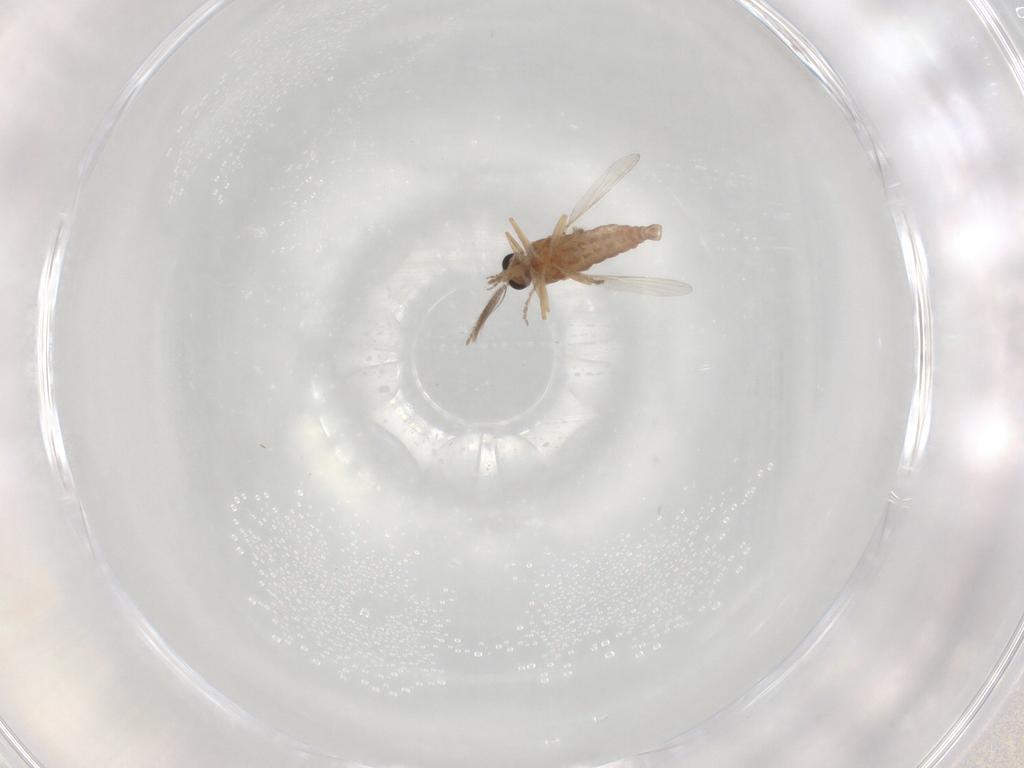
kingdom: Animalia
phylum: Arthropoda
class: Insecta
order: Diptera
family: Ceratopogonidae
